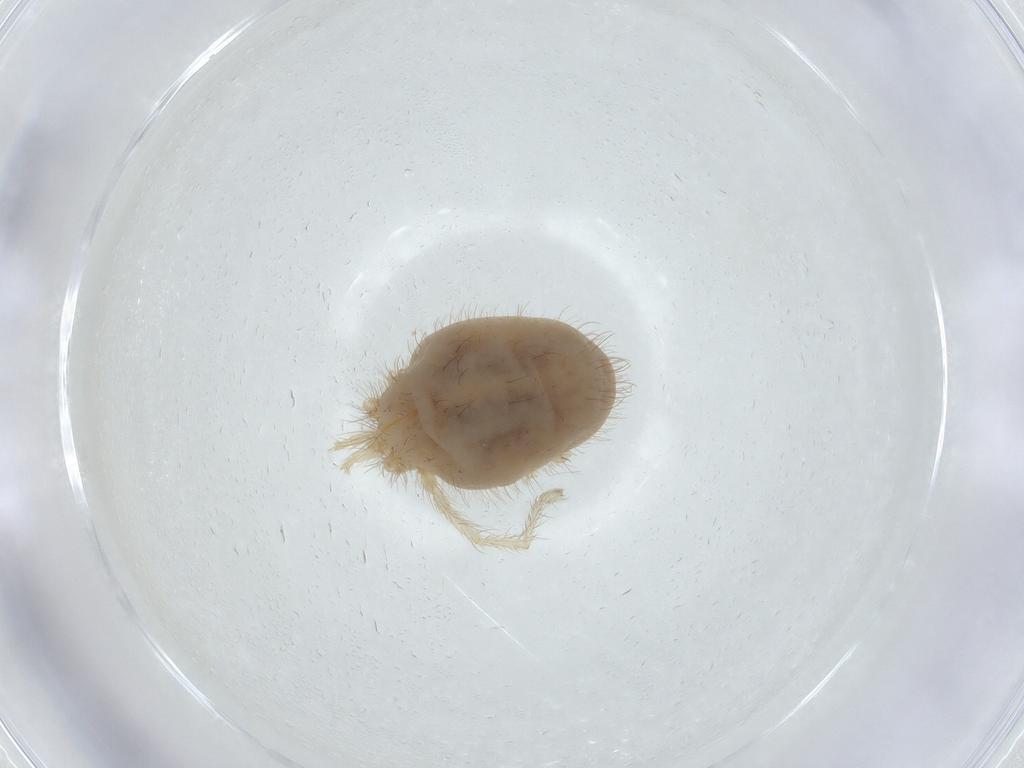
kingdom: Animalia
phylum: Arthropoda
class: Arachnida
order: Trombidiformes
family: Erythraeidae
